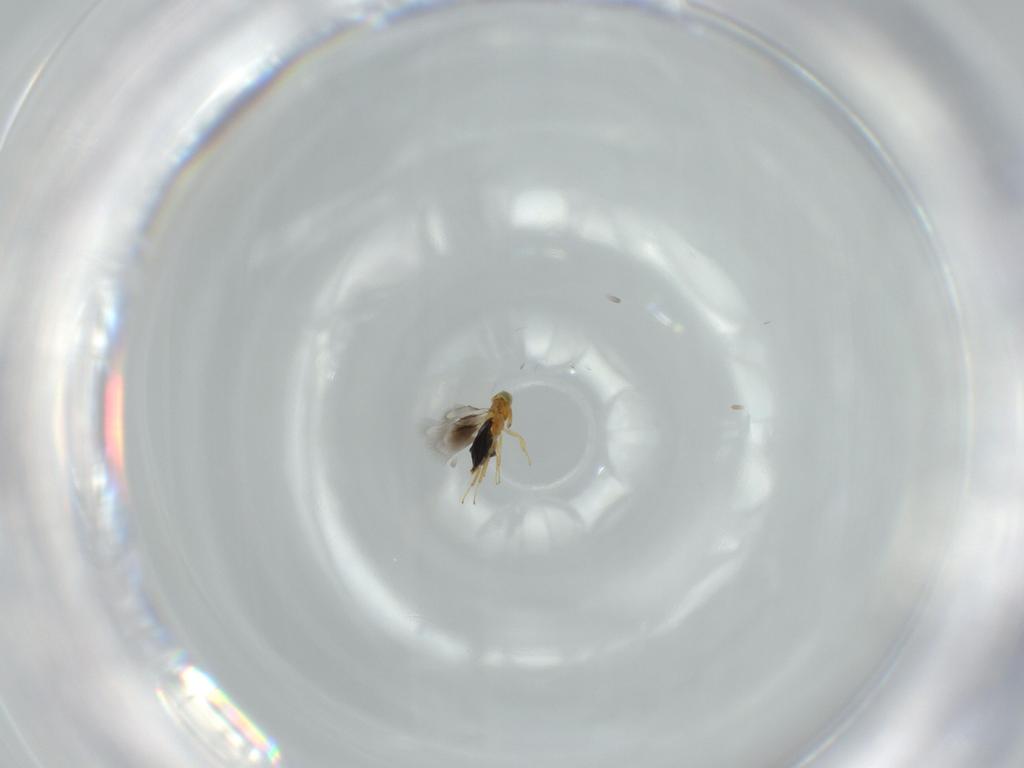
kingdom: Animalia
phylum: Arthropoda
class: Insecta
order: Hymenoptera
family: Signiphoridae
